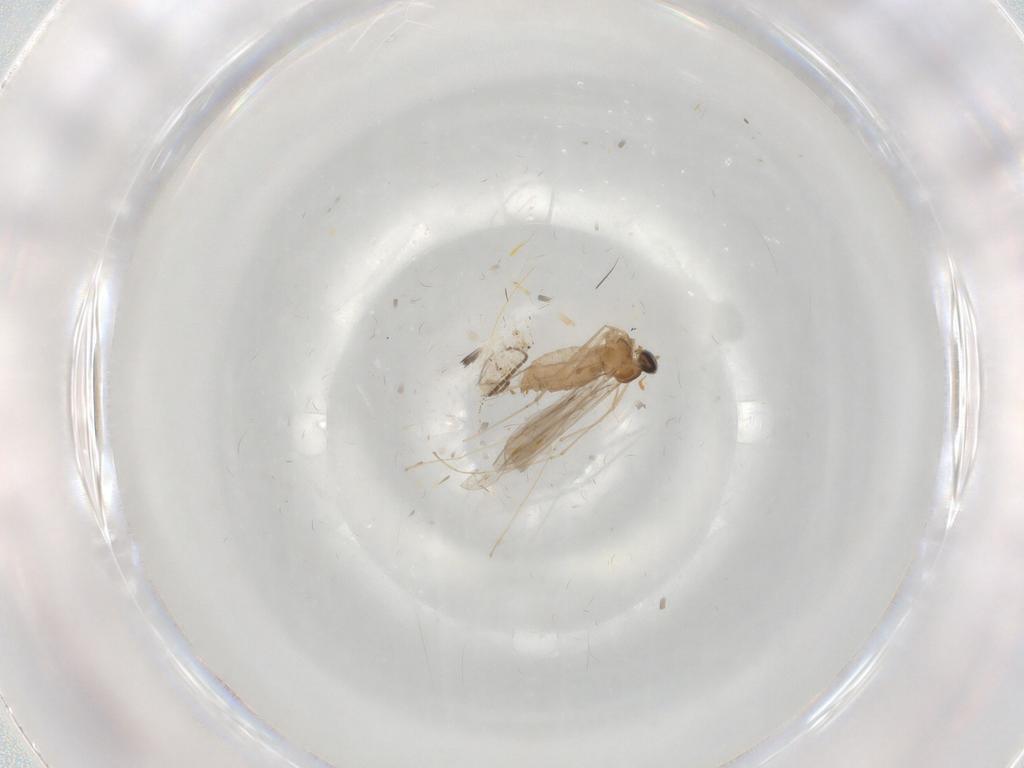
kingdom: Animalia
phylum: Arthropoda
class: Insecta
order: Diptera
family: Cecidomyiidae
